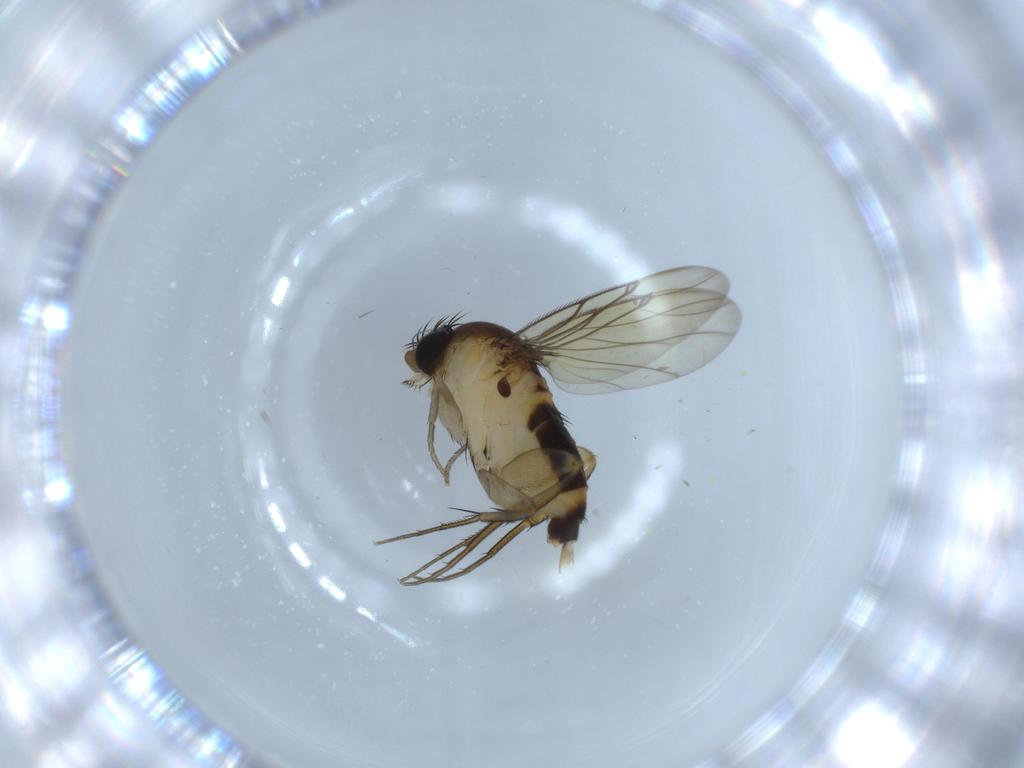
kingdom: Animalia
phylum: Arthropoda
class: Insecta
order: Diptera
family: Phoridae
